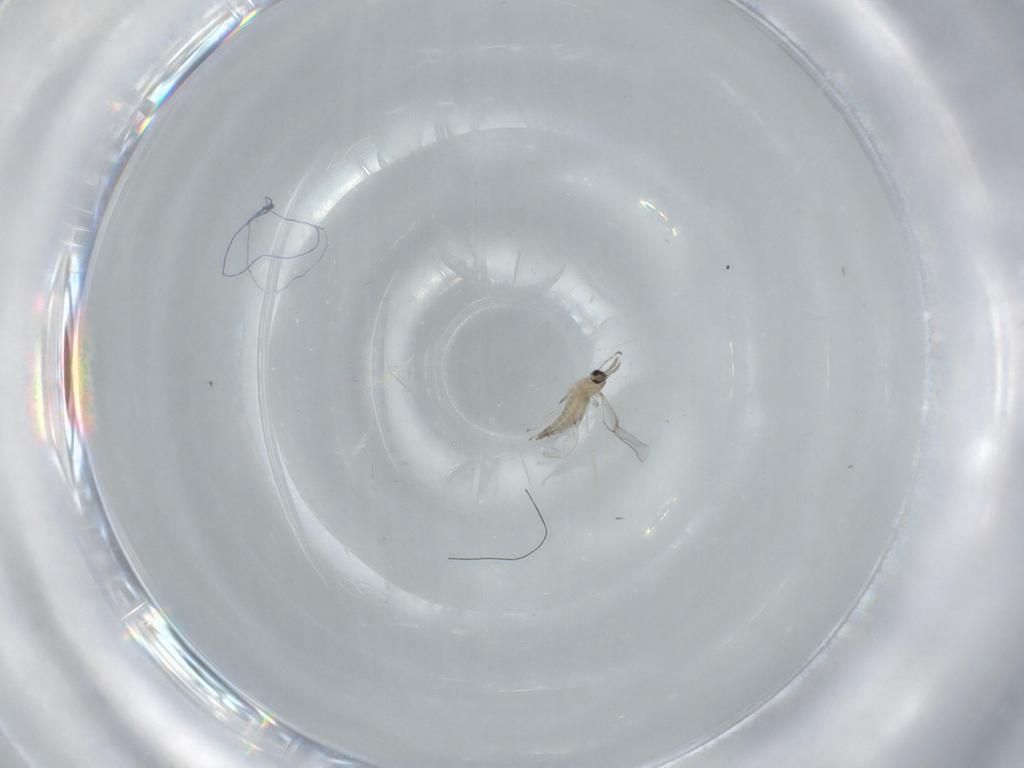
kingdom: Animalia
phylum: Arthropoda
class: Insecta
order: Diptera
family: Cecidomyiidae
